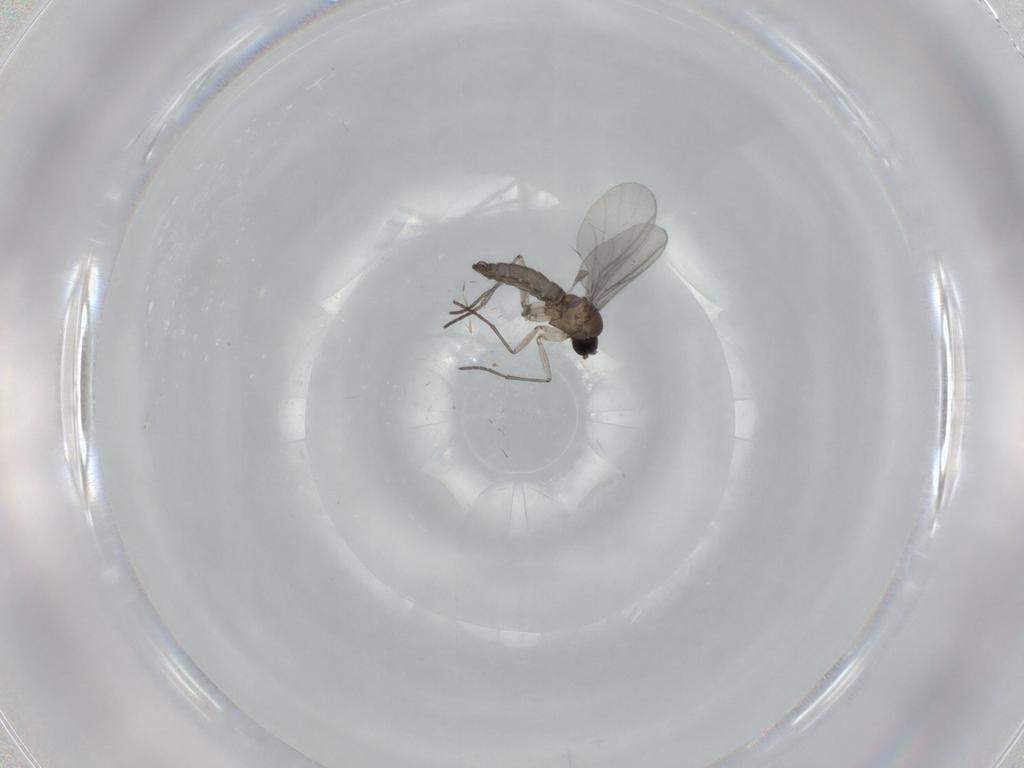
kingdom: Animalia
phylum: Arthropoda
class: Insecta
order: Diptera
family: Sciaridae
